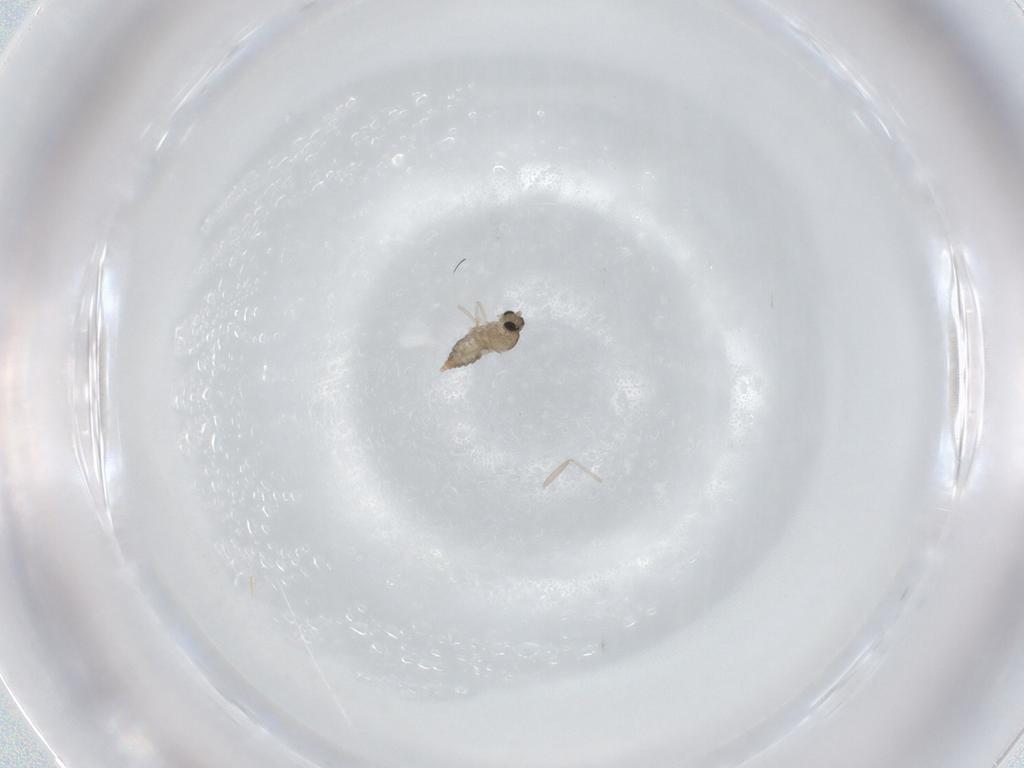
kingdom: Animalia
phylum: Arthropoda
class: Insecta
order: Diptera
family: Cecidomyiidae
